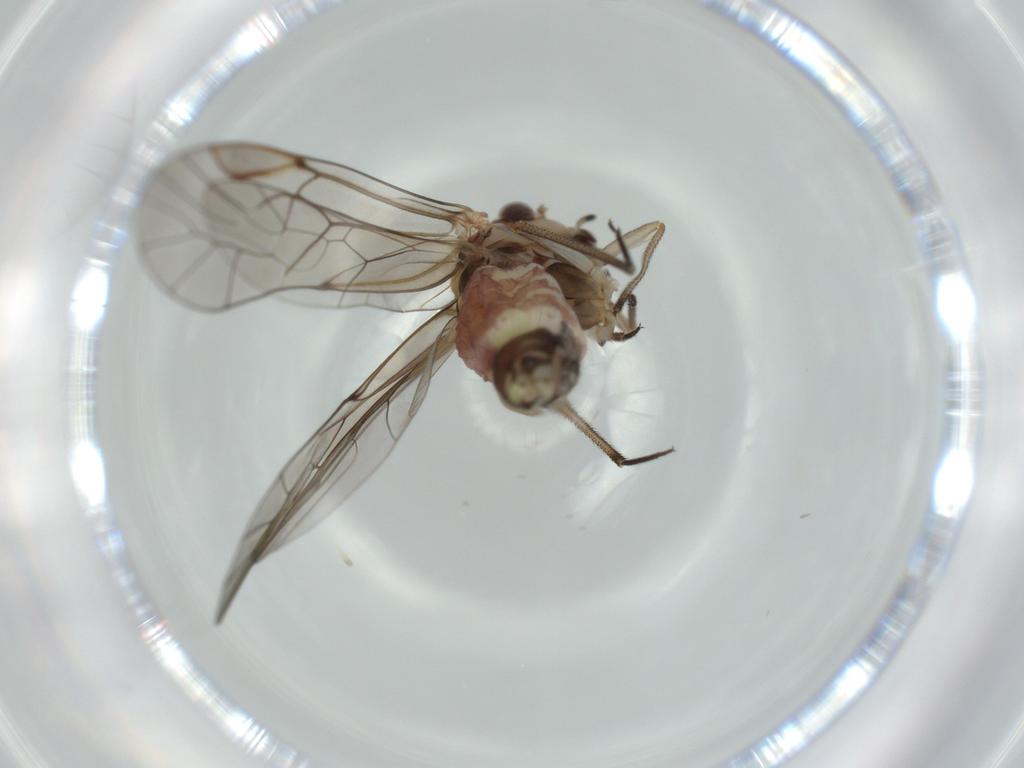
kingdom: Animalia
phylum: Arthropoda
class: Insecta
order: Psocodea
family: Psocidae
